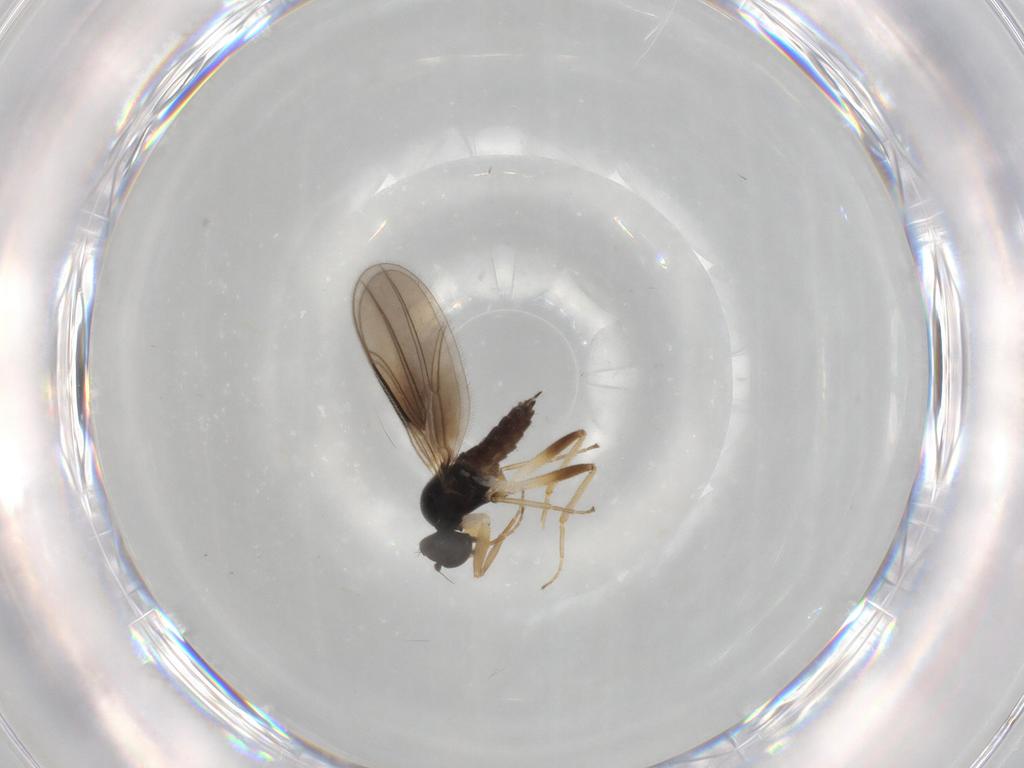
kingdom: Animalia
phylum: Arthropoda
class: Insecta
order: Diptera
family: Hybotidae
